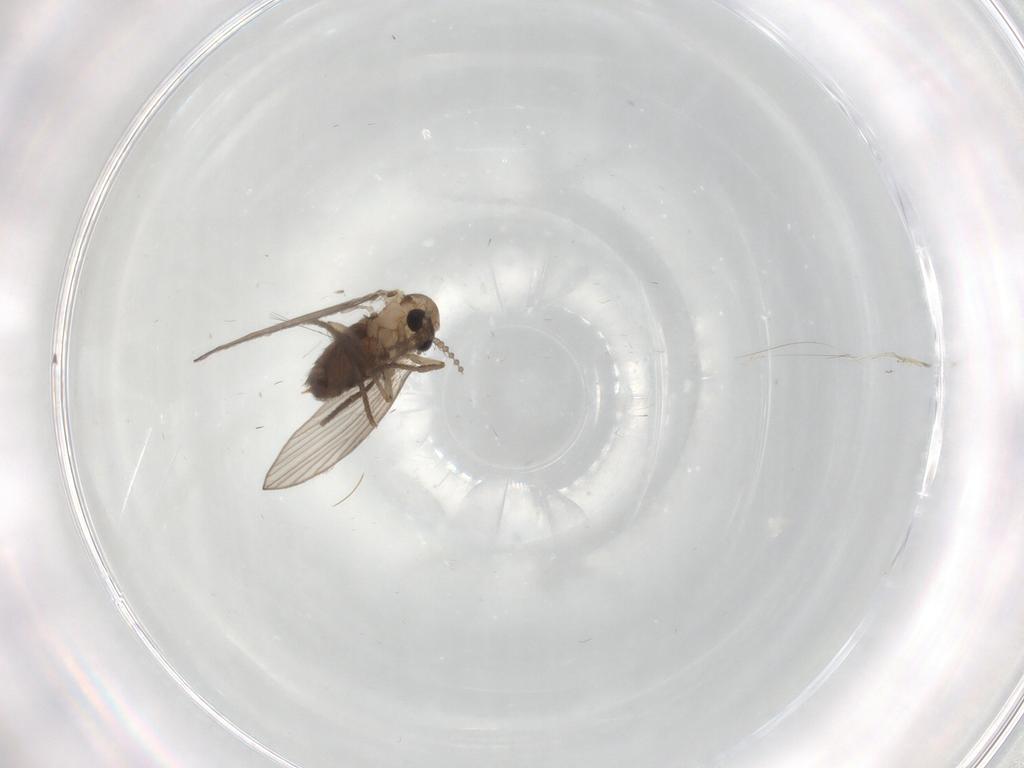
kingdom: Animalia
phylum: Arthropoda
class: Insecta
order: Diptera
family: Psychodidae
